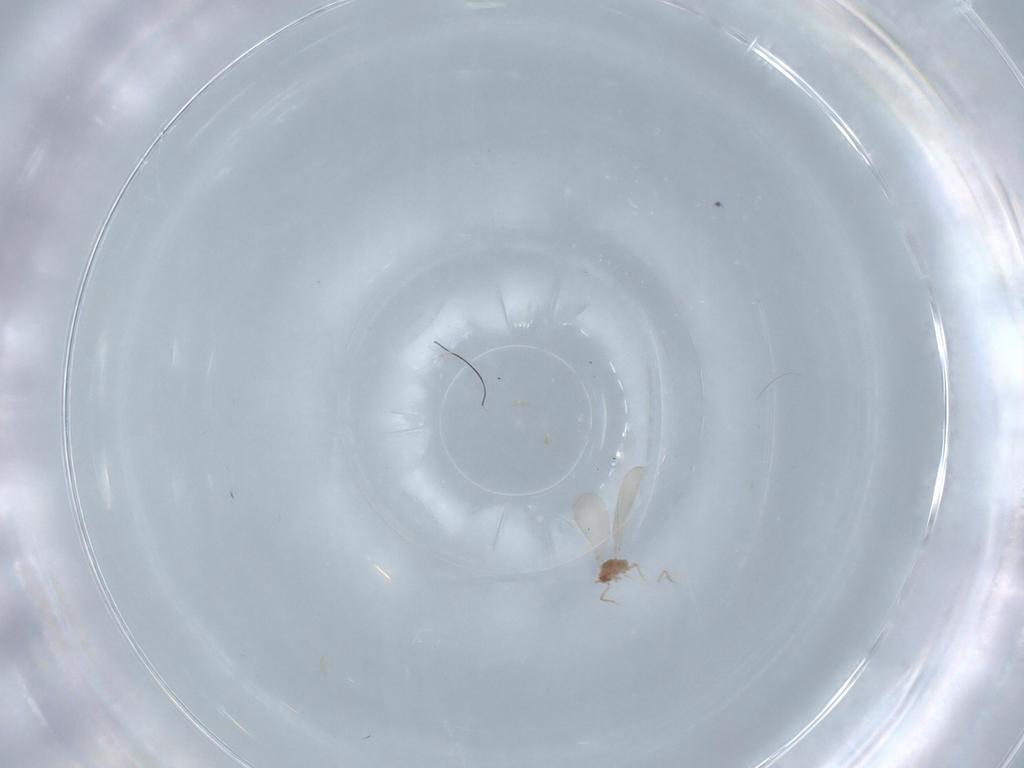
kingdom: Animalia
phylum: Arthropoda
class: Insecta
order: Diptera
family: Chironomidae
